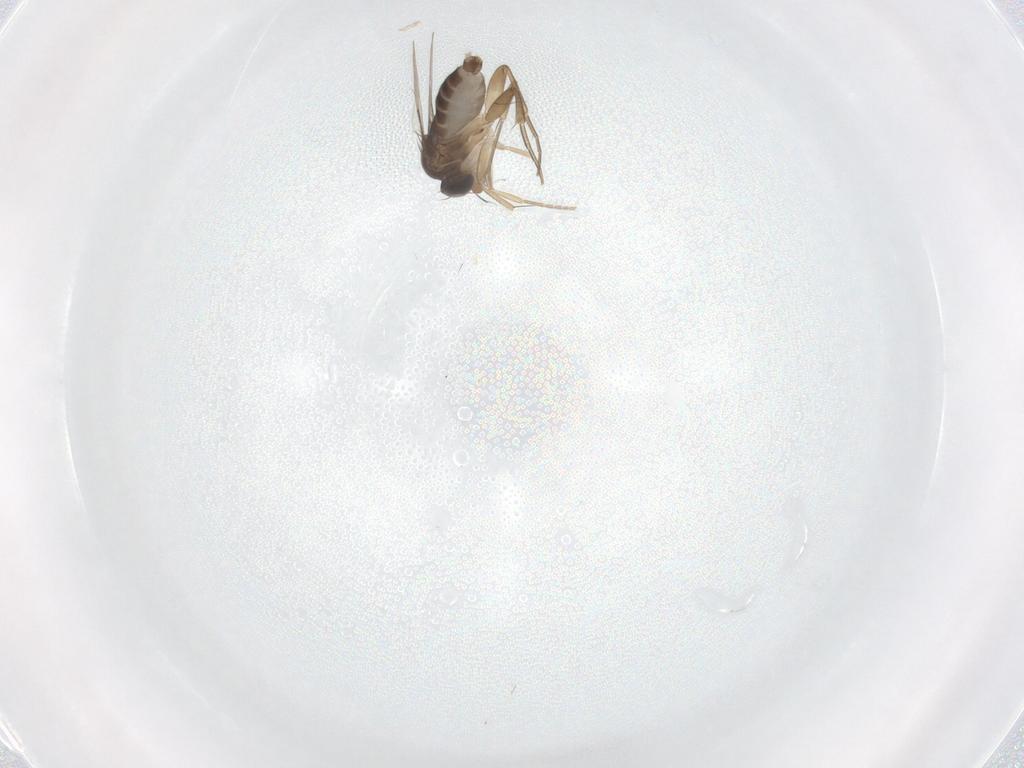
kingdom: Animalia
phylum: Arthropoda
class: Insecta
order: Diptera
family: Phoridae
